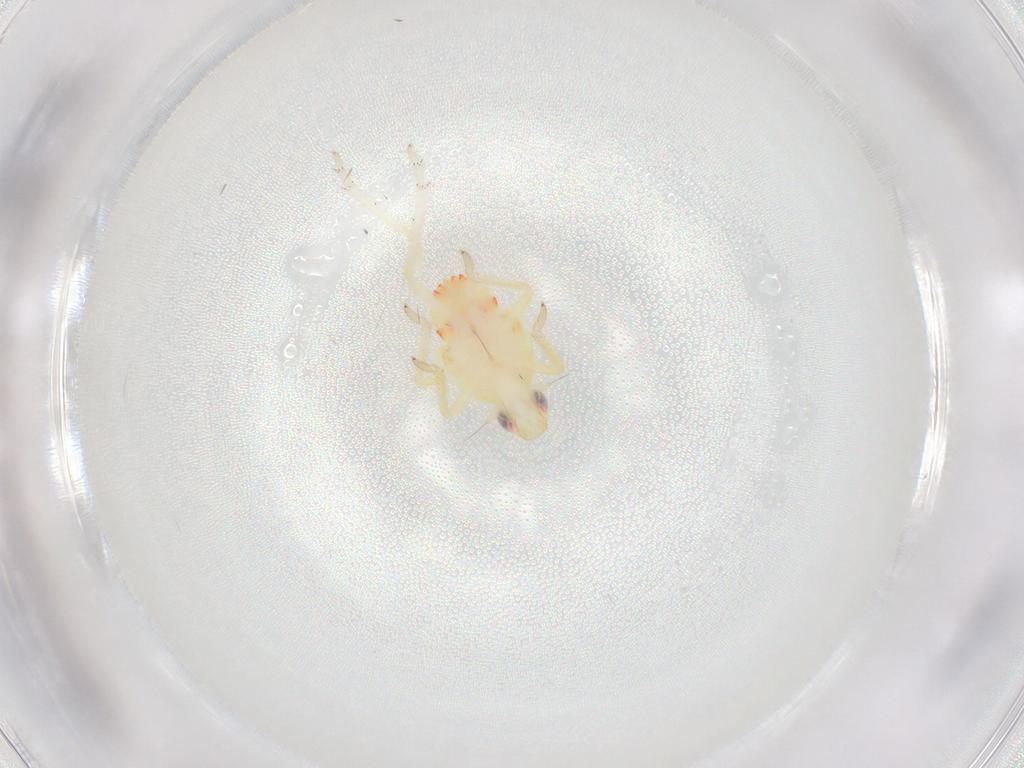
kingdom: Animalia
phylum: Arthropoda
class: Insecta
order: Hemiptera
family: Tropiduchidae
